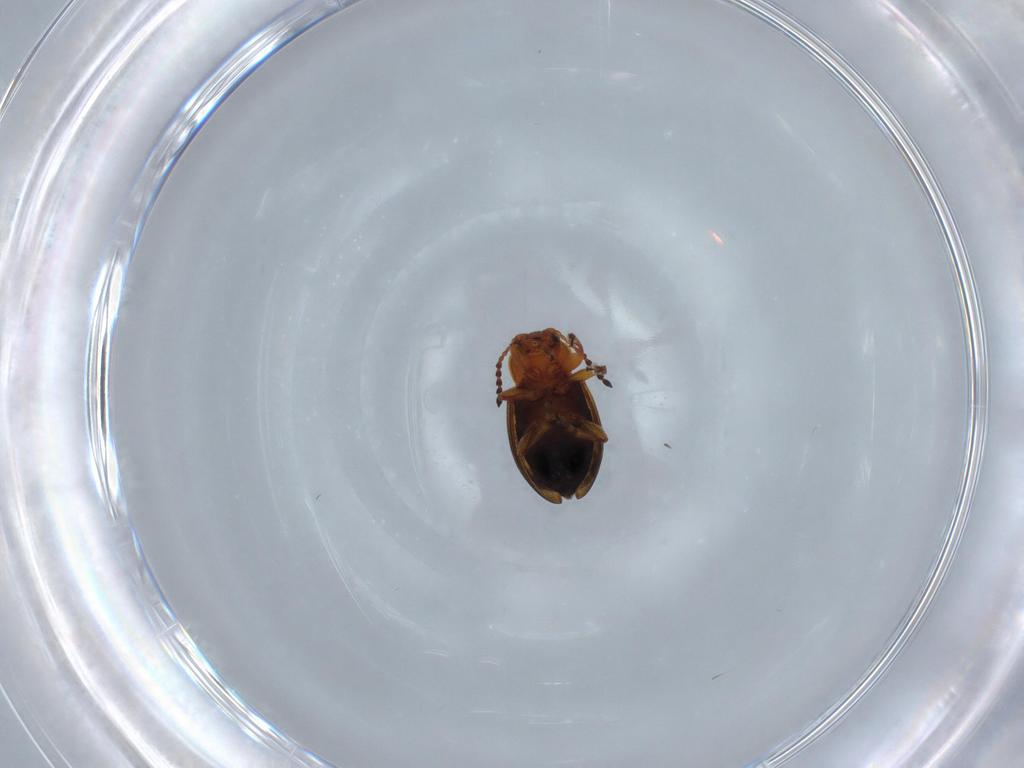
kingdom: Animalia
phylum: Arthropoda
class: Insecta
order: Coleoptera
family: Chrysomelidae
